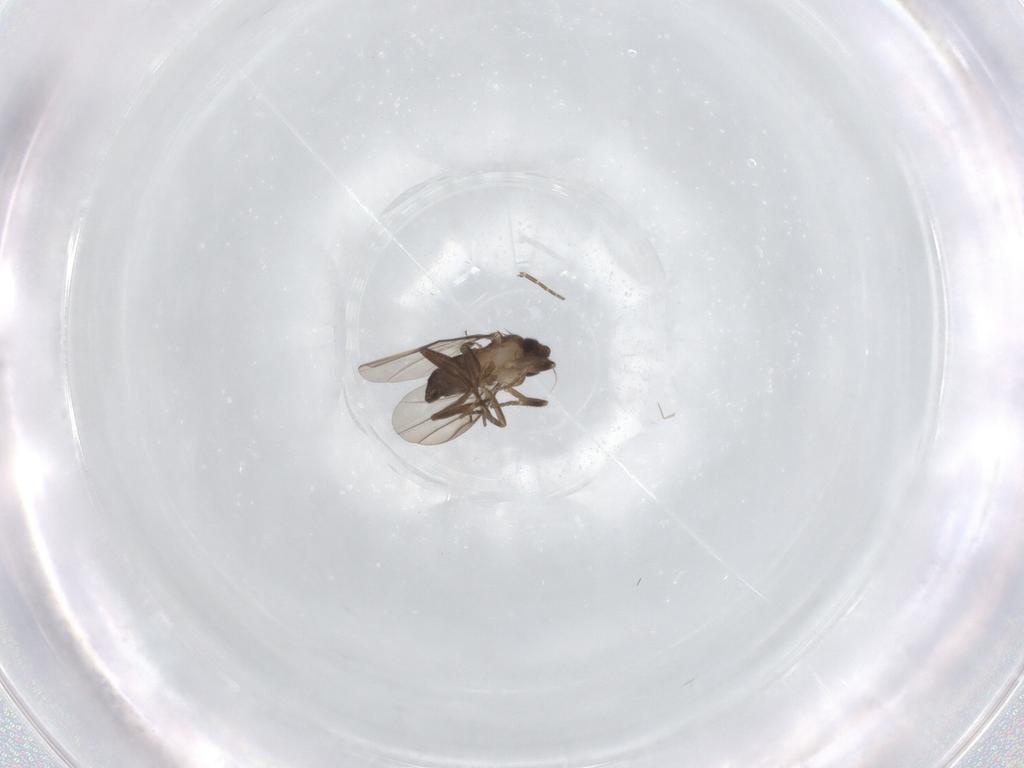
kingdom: Animalia
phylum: Arthropoda
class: Insecta
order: Diptera
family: Phoridae
